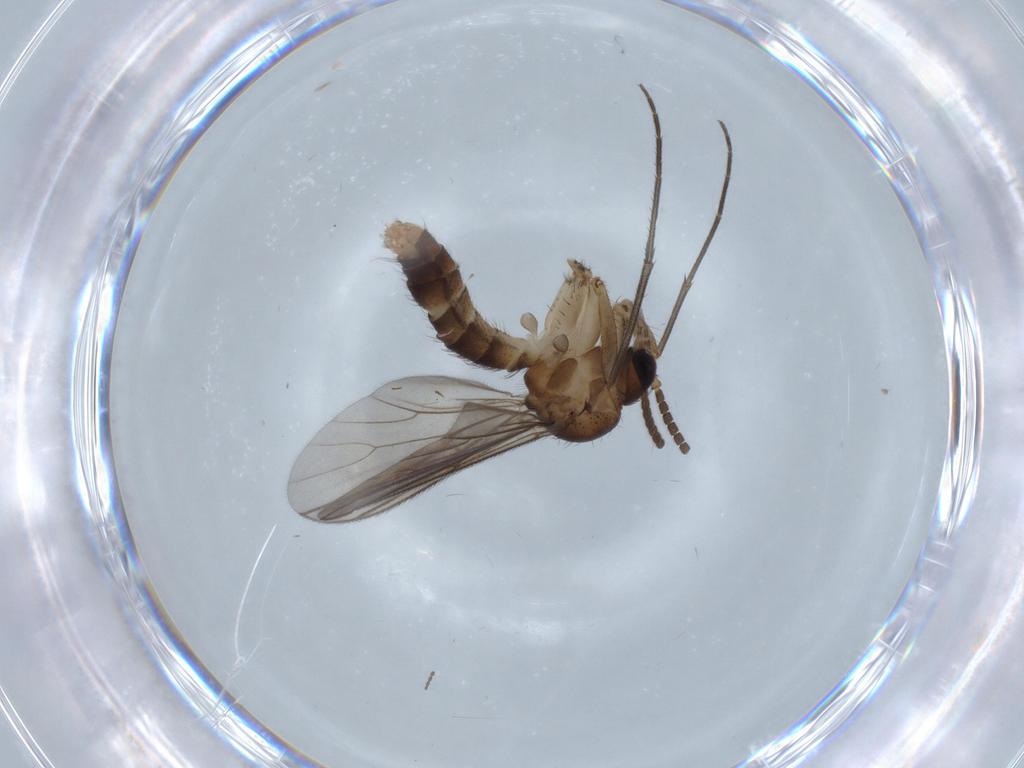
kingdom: Animalia
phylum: Arthropoda
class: Insecta
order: Diptera
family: Mycetophilidae
